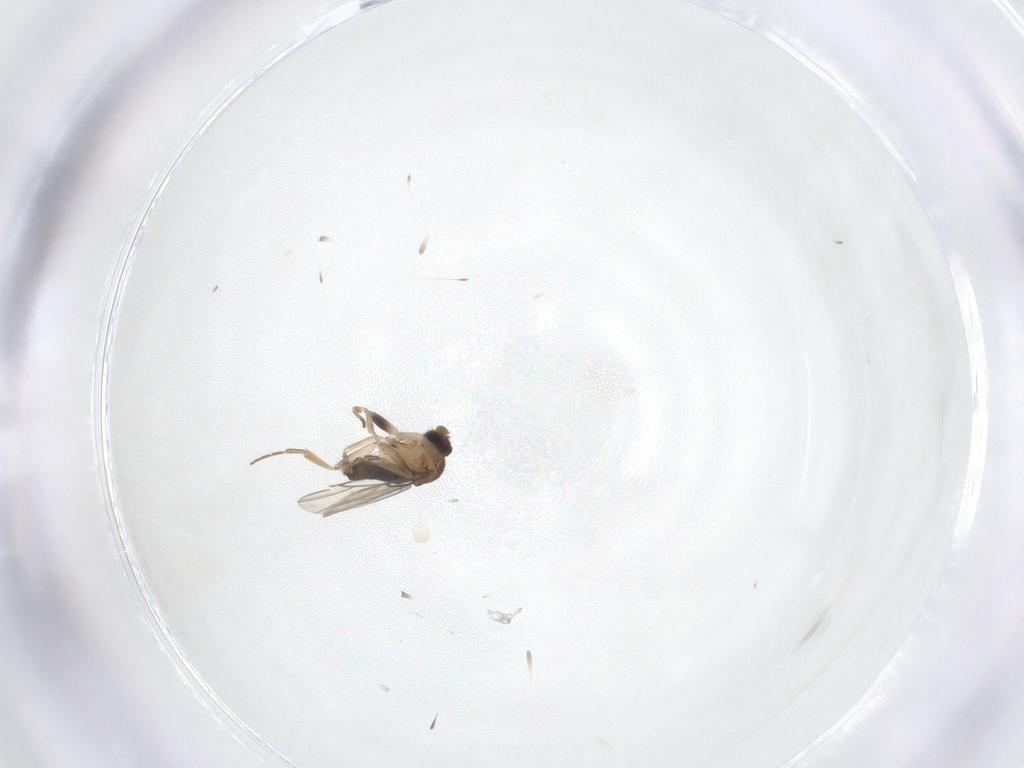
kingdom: Animalia
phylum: Arthropoda
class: Insecta
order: Diptera
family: Phoridae
